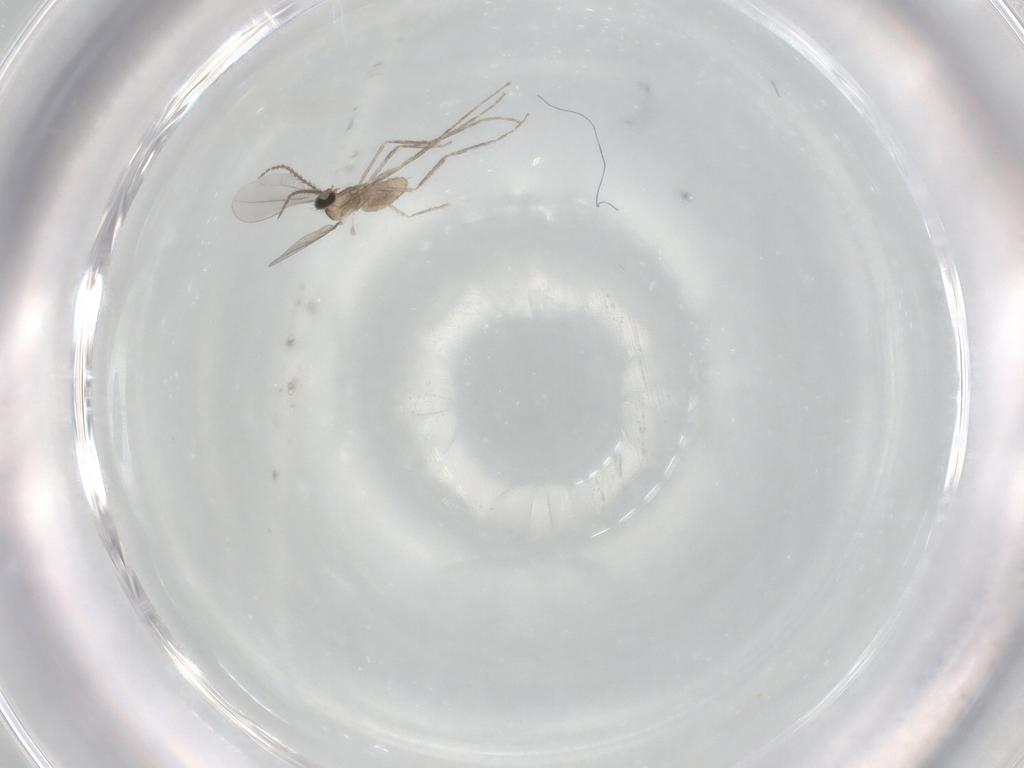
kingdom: Animalia
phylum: Arthropoda
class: Insecta
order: Diptera
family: Cecidomyiidae
